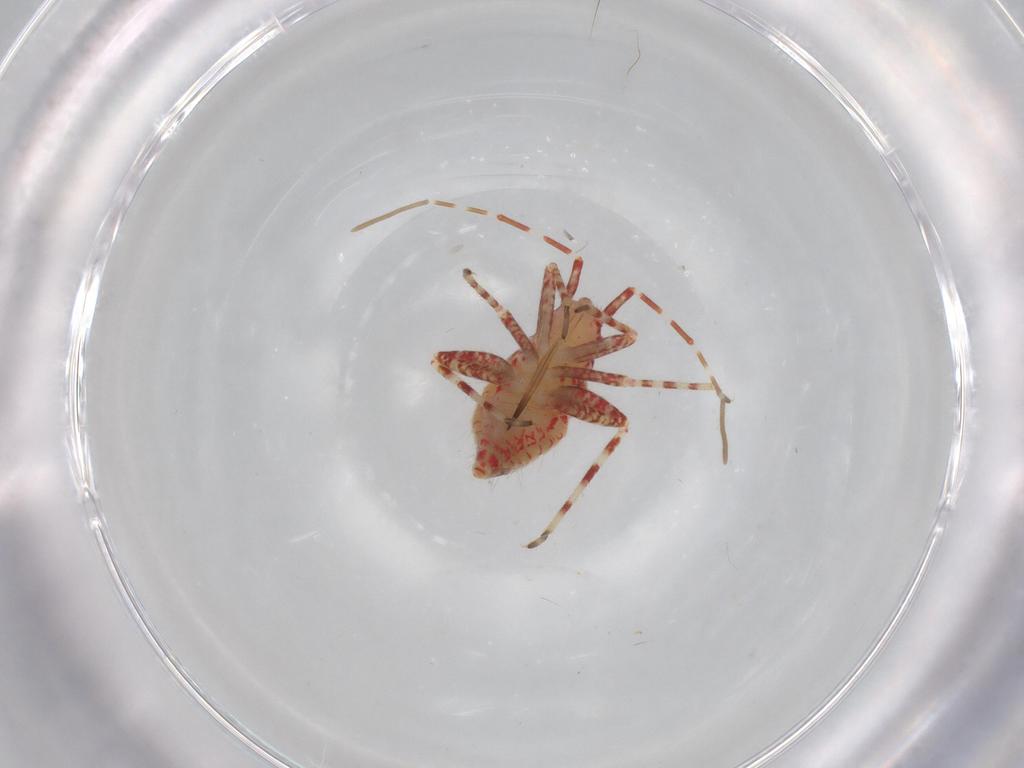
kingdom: Animalia
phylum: Arthropoda
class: Insecta
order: Hemiptera
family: Miridae
